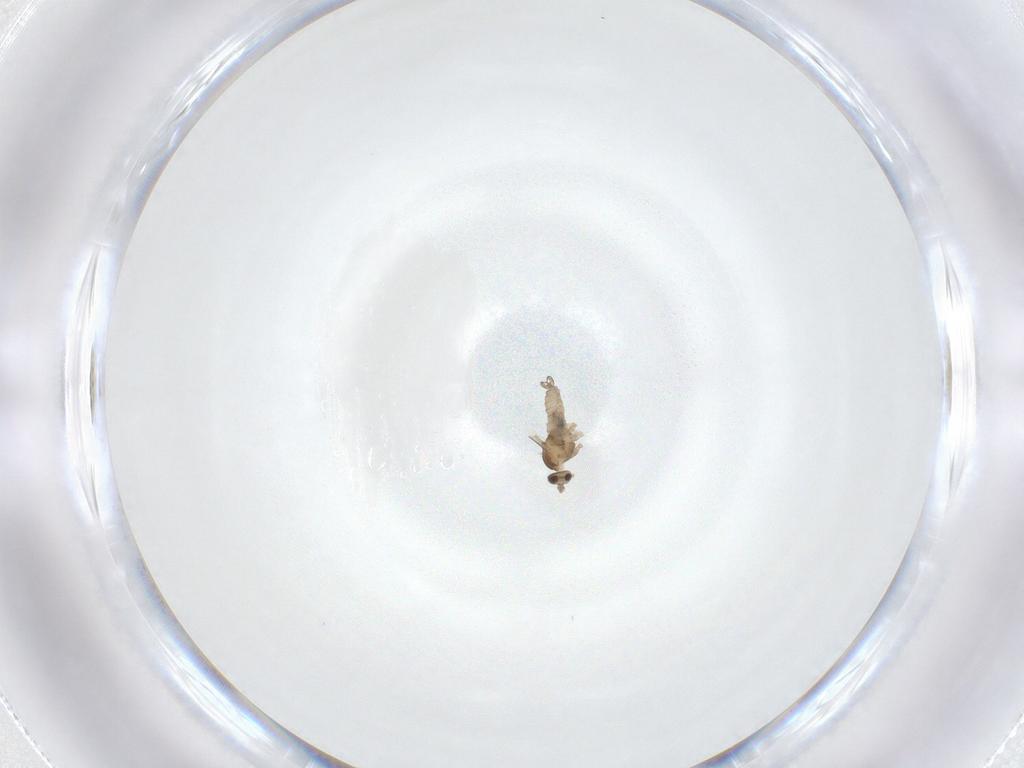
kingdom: Animalia
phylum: Arthropoda
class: Insecta
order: Diptera
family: Cecidomyiidae
